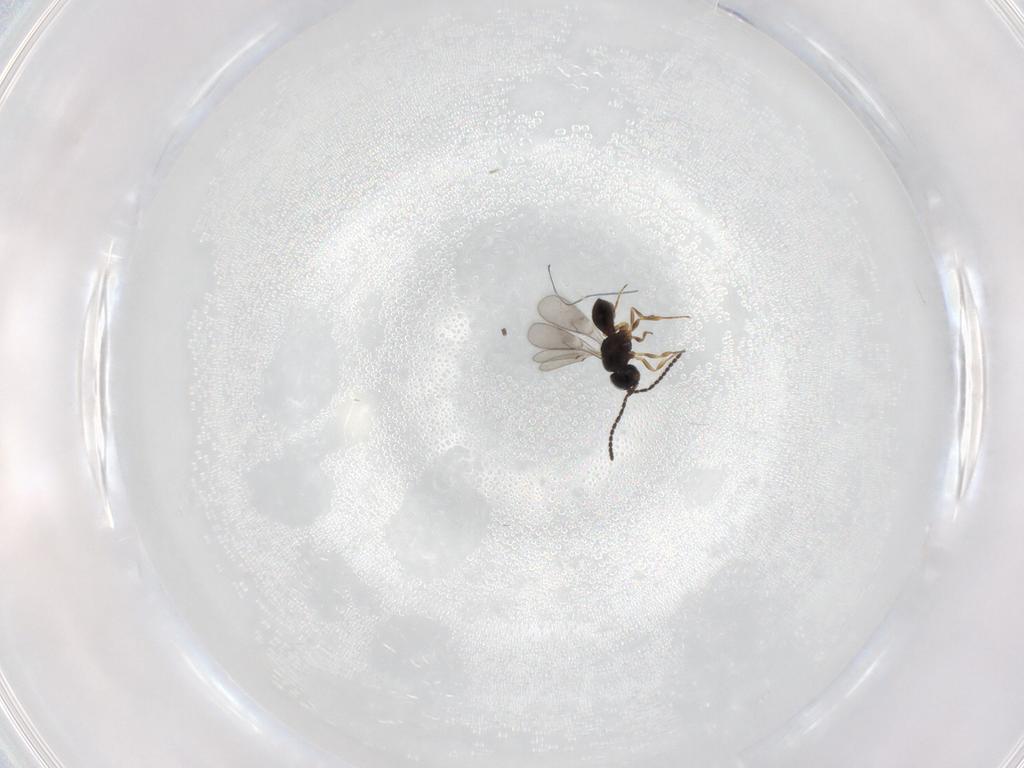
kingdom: Animalia
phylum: Arthropoda
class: Insecta
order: Hymenoptera
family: Scelionidae
